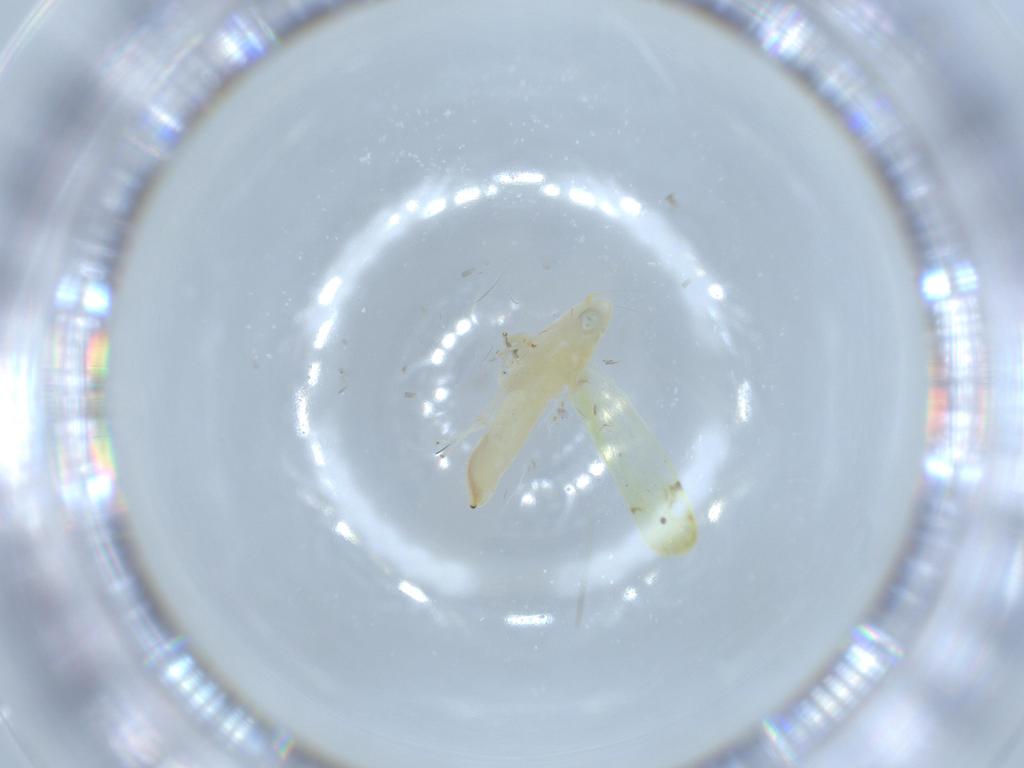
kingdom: Animalia
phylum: Arthropoda
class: Insecta
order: Hemiptera
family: Cicadellidae
